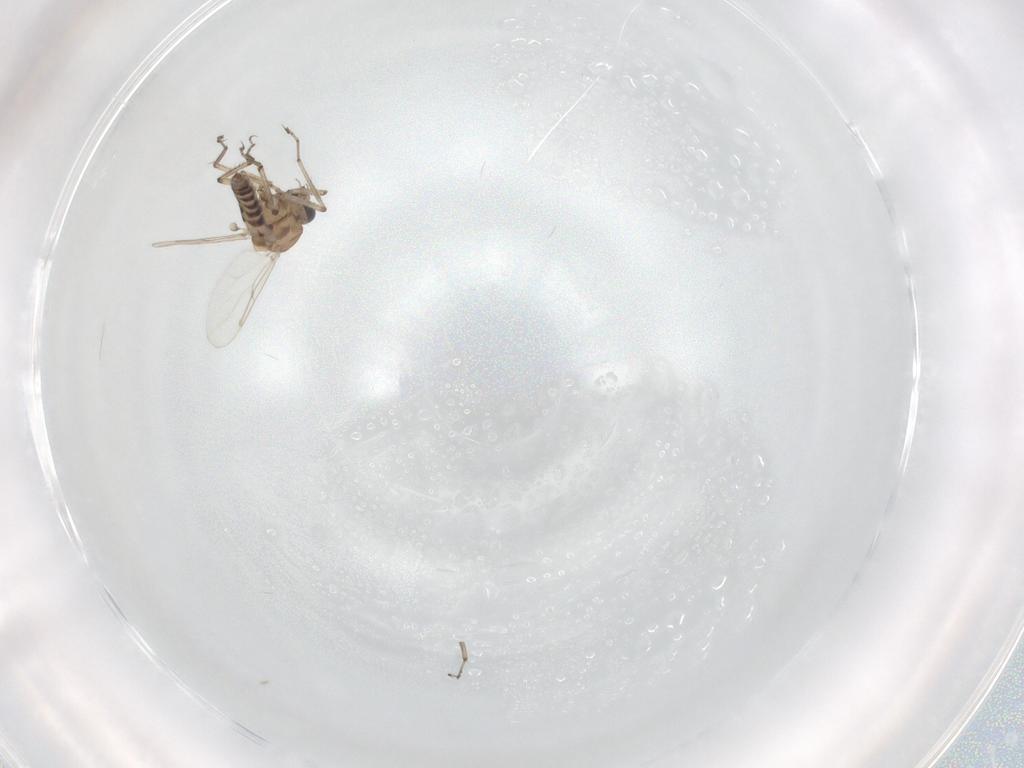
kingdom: Animalia
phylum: Arthropoda
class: Insecta
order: Diptera
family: Ceratopogonidae
